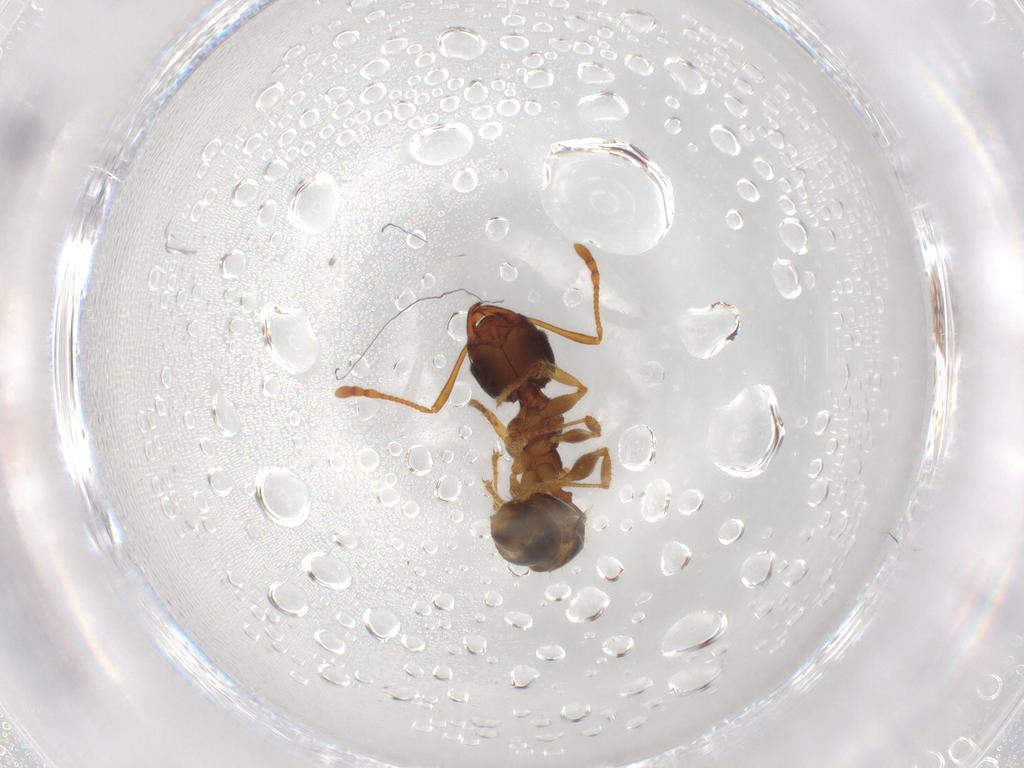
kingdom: Animalia
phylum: Arthropoda
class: Insecta
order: Hymenoptera
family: Formicidae
